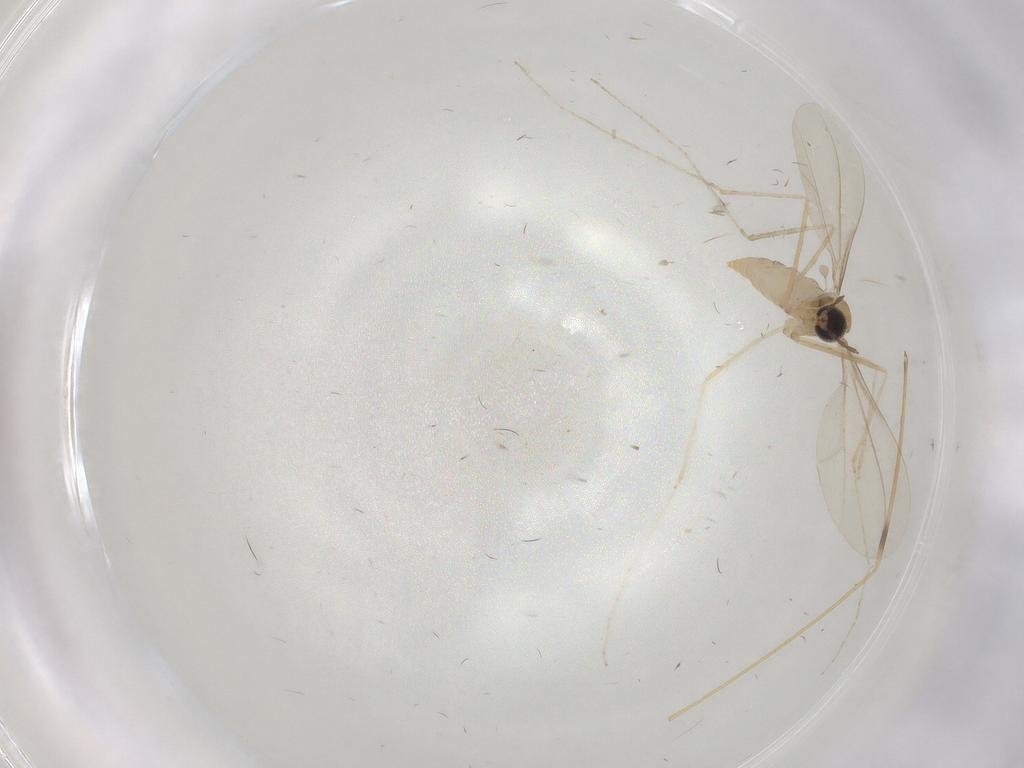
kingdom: Animalia
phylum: Arthropoda
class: Insecta
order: Diptera
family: Cecidomyiidae
